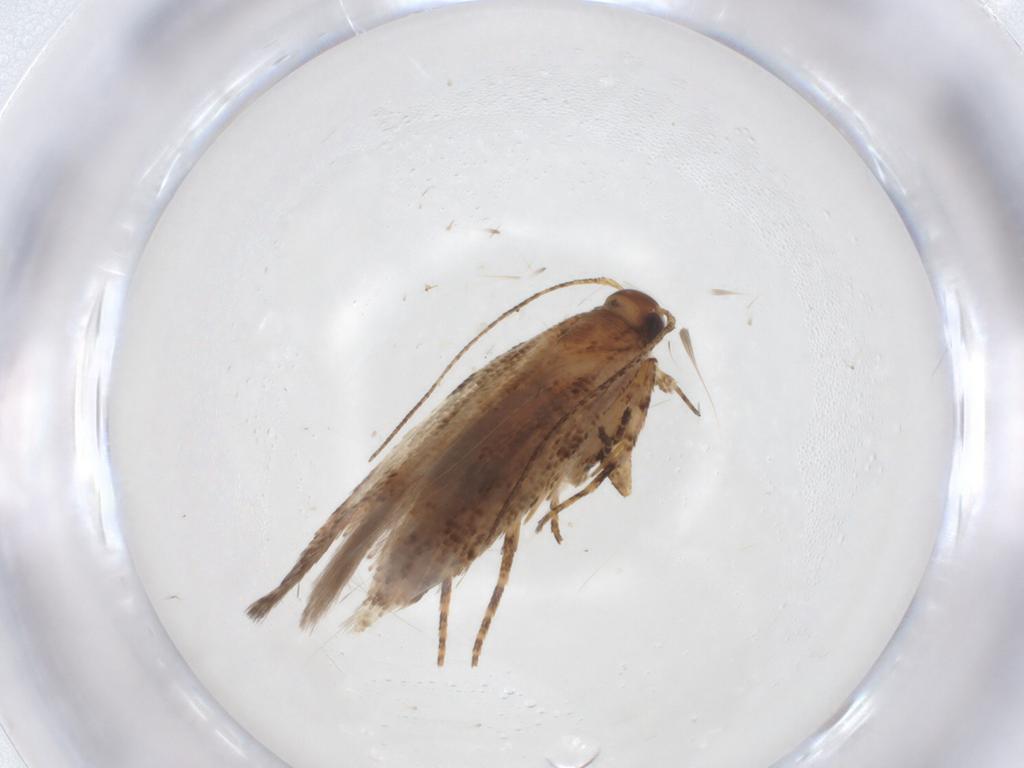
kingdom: Animalia
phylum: Arthropoda
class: Insecta
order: Lepidoptera
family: Gelechiidae
